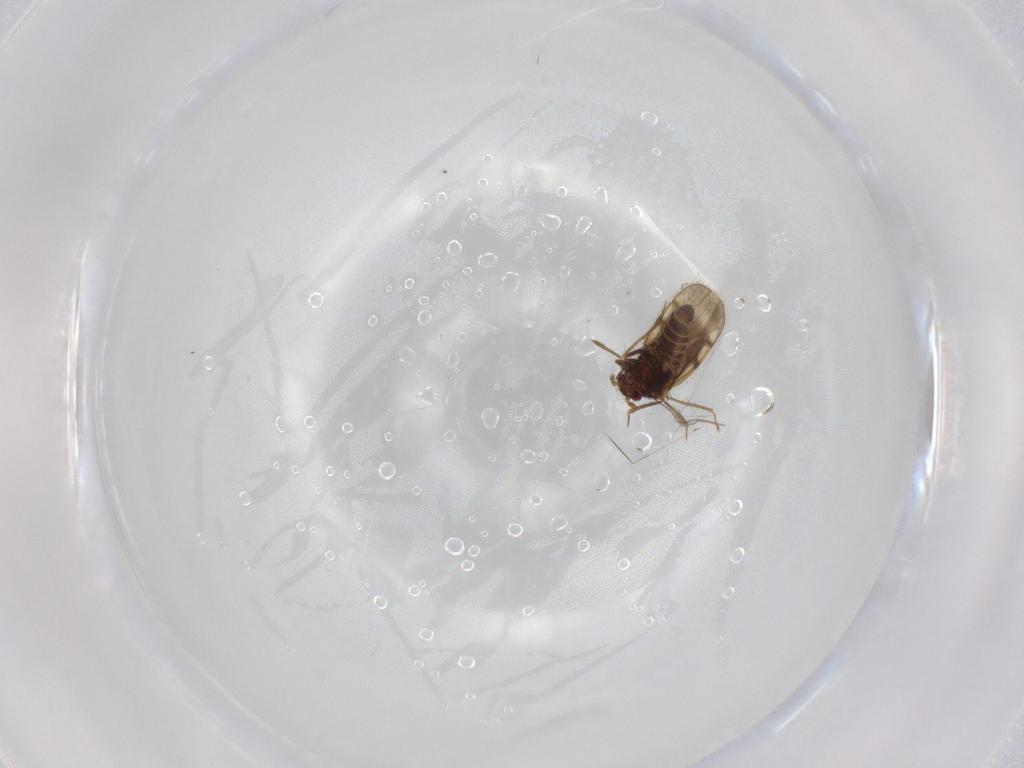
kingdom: Animalia
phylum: Arthropoda
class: Insecta
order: Hemiptera
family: Schizopteridae
